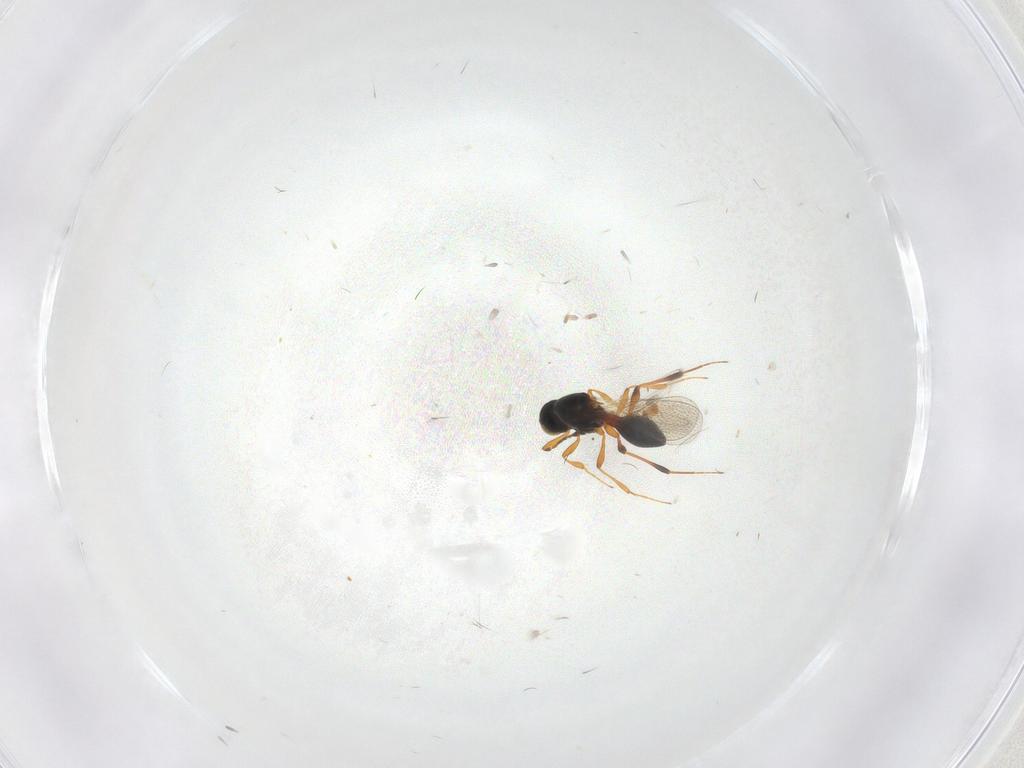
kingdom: Animalia
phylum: Arthropoda
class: Insecta
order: Hymenoptera
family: Platygastridae
